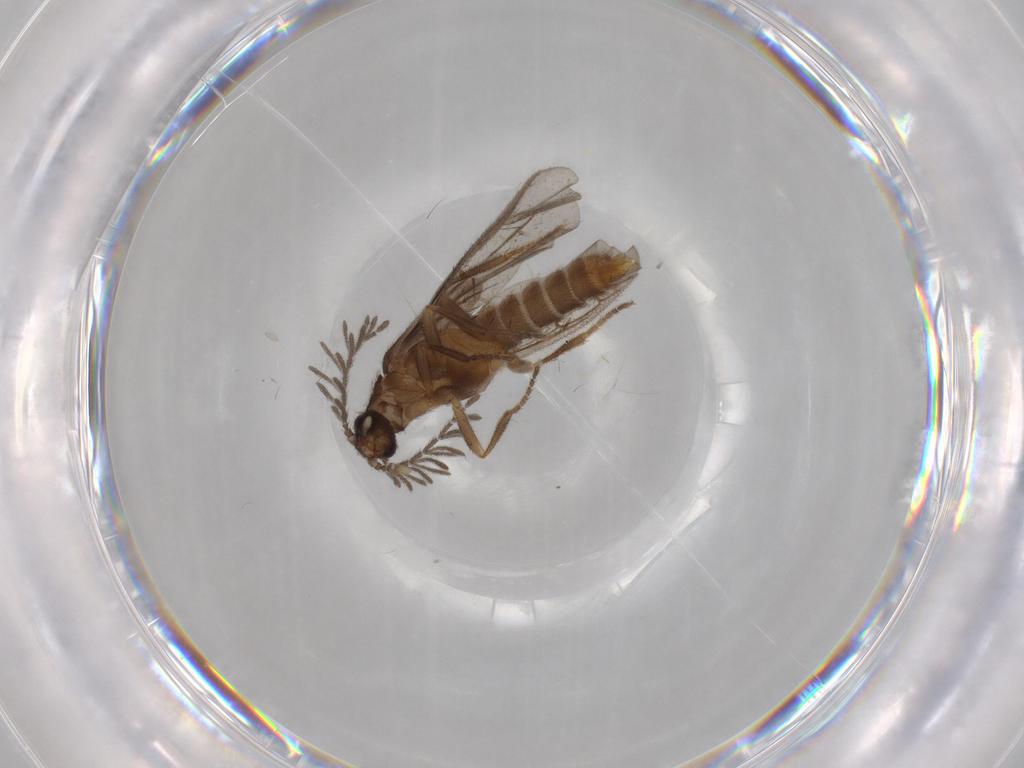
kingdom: Animalia
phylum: Arthropoda
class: Insecta
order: Coleoptera
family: Chrysomelidae
